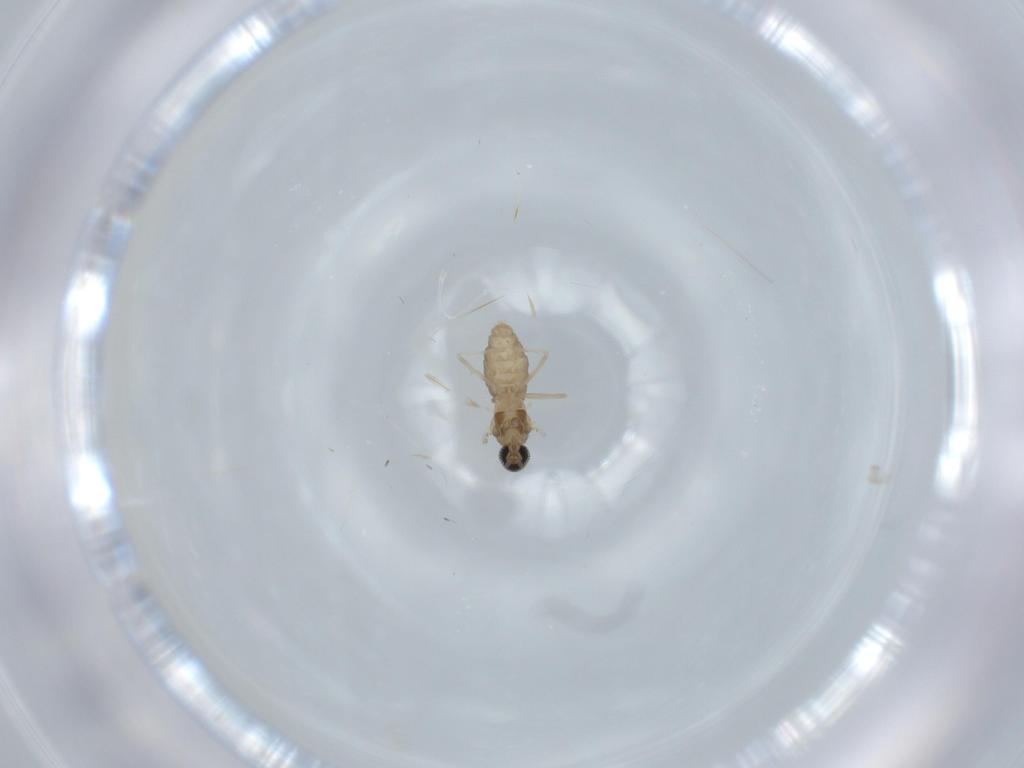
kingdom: Animalia
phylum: Arthropoda
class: Insecta
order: Diptera
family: Cecidomyiidae
